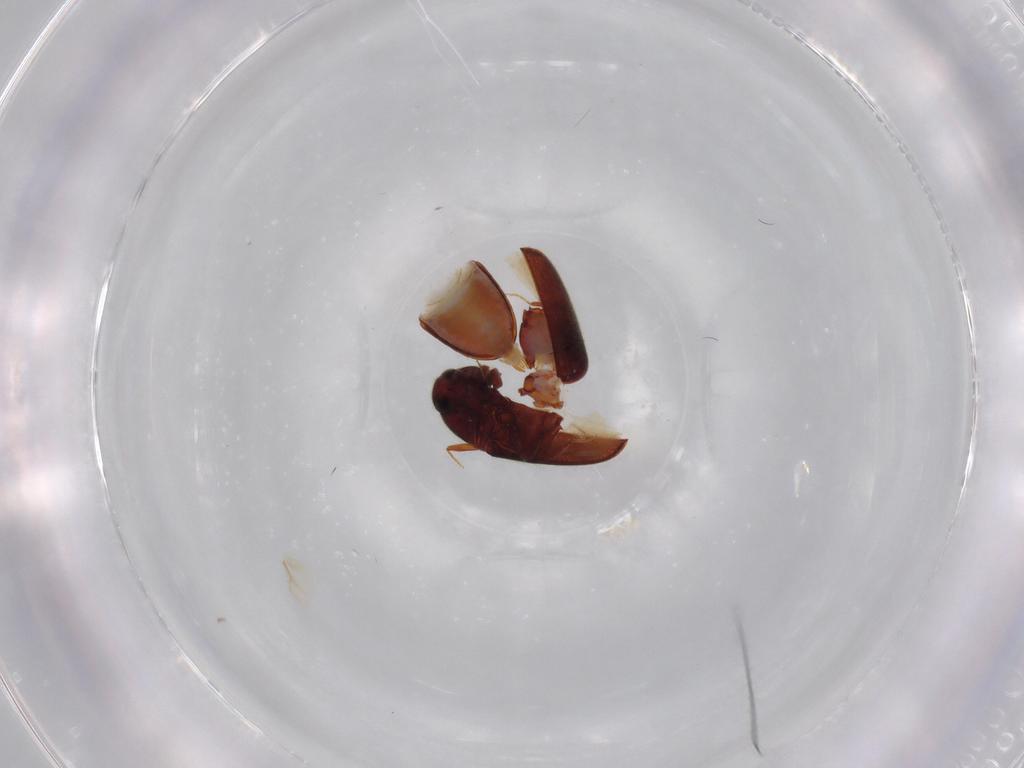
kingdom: Animalia
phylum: Arthropoda
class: Insecta
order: Coleoptera
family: Throscidae
